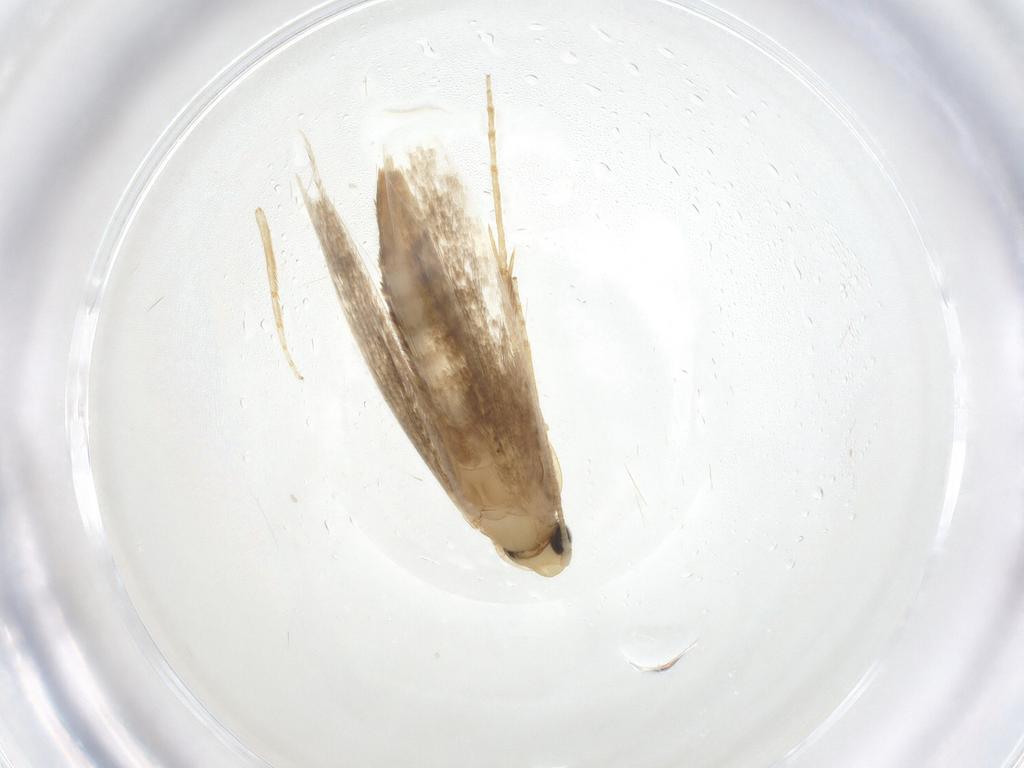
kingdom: Animalia
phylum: Arthropoda
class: Insecta
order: Lepidoptera
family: Tineidae
